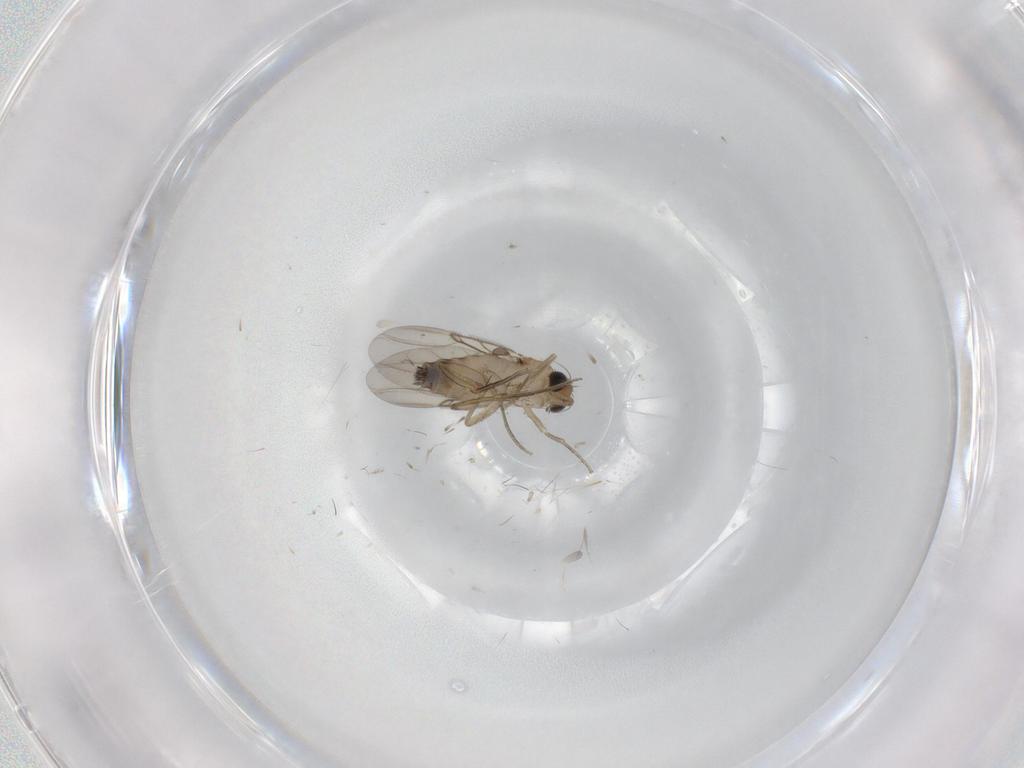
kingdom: Animalia
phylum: Arthropoda
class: Insecta
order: Diptera
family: Phoridae
